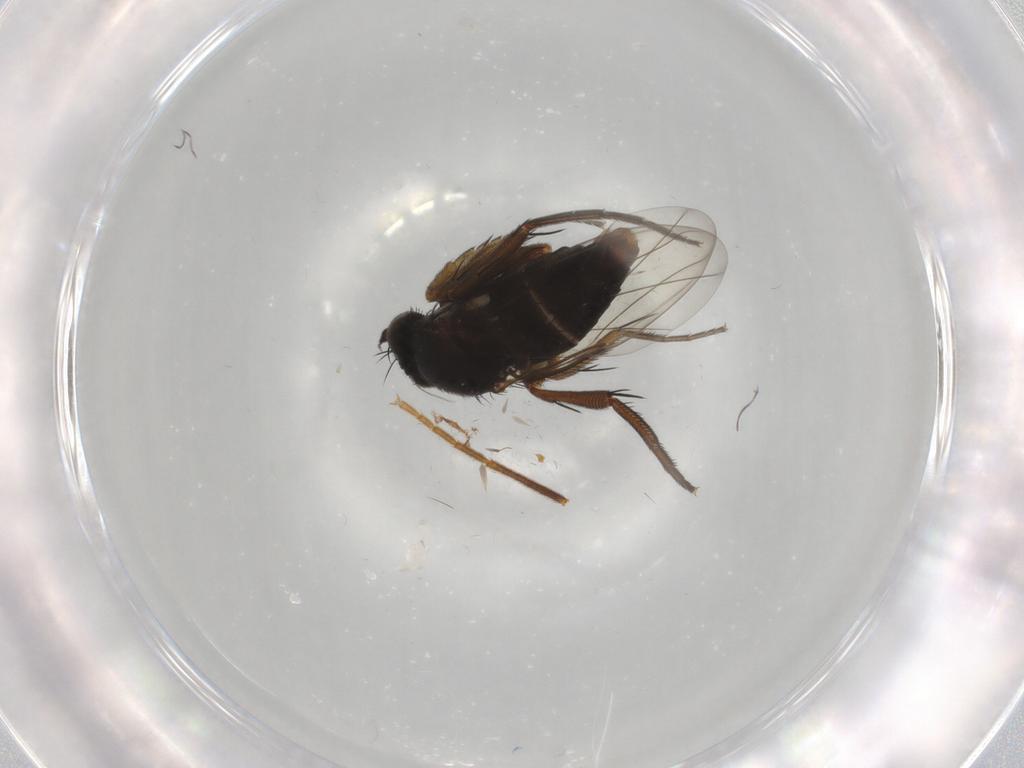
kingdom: Animalia
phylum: Arthropoda
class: Insecta
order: Diptera
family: Phoridae
